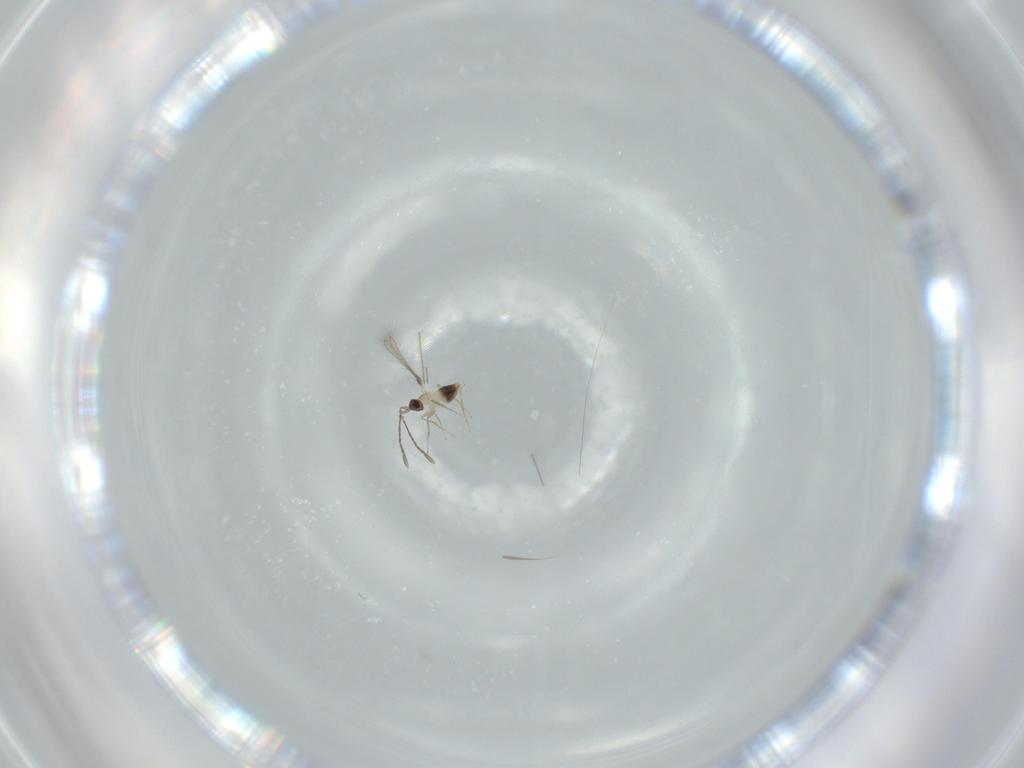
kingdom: Animalia
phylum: Arthropoda
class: Insecta
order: Hymenoptera
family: Mymaridae
